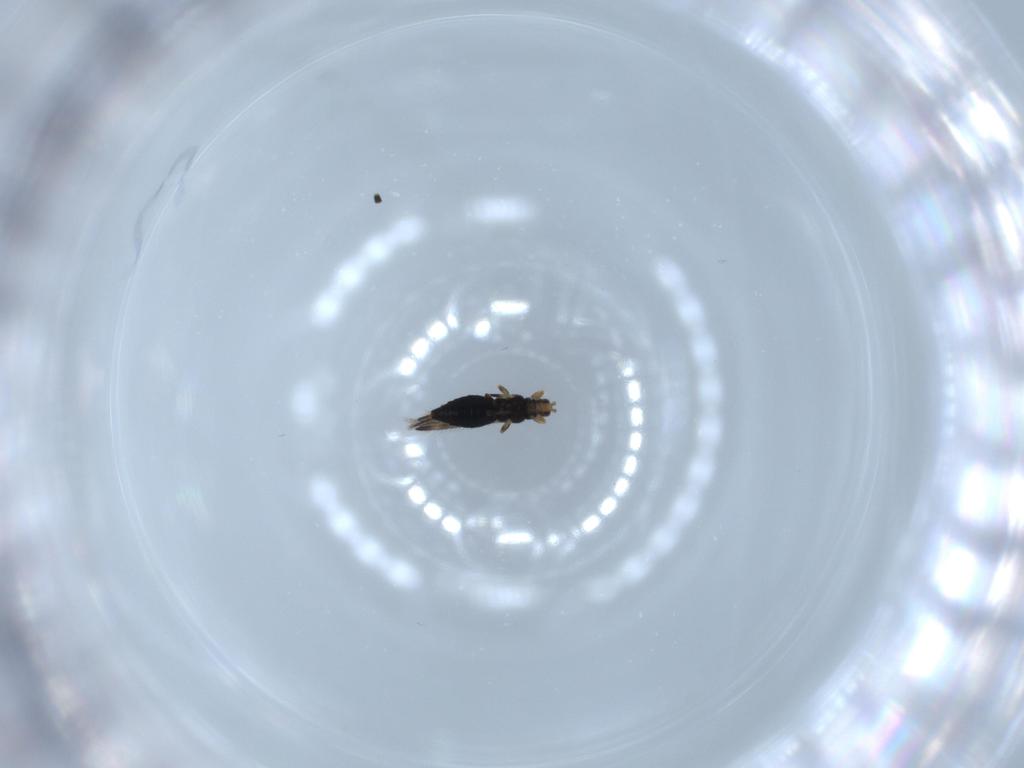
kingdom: Animalia
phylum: Arthropoda
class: Insecta
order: Thysanoptera
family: Thripidae
